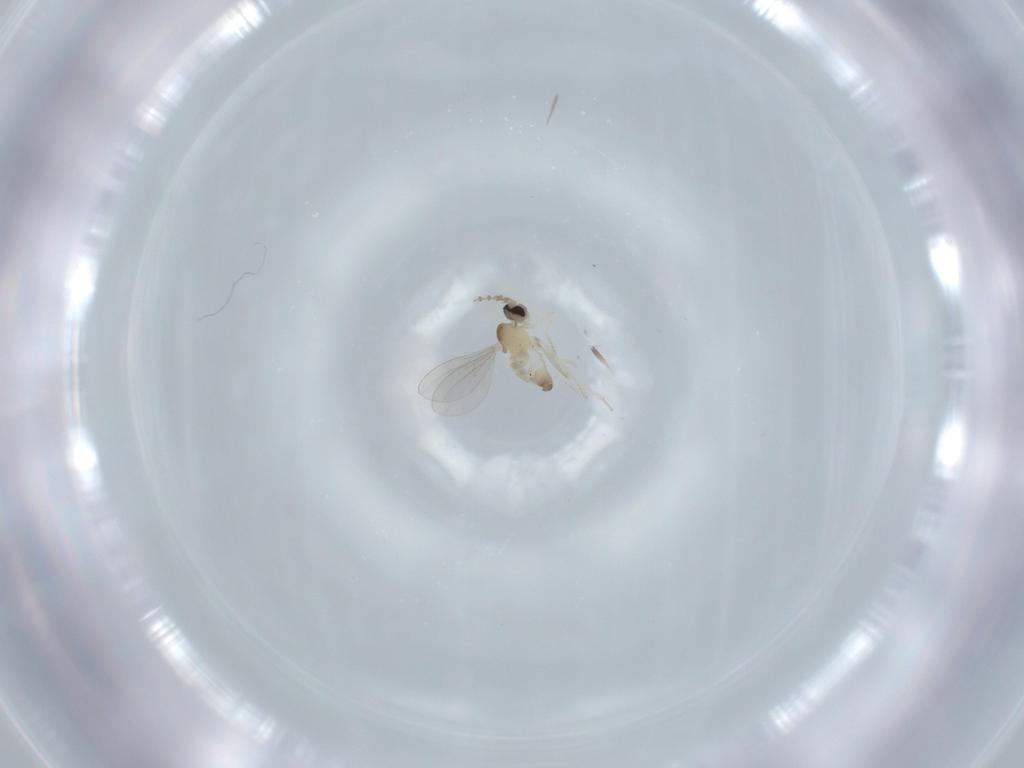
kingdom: Animalia
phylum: Arthropoda
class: Insecta
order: Diptera
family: Cecidomyiidae
